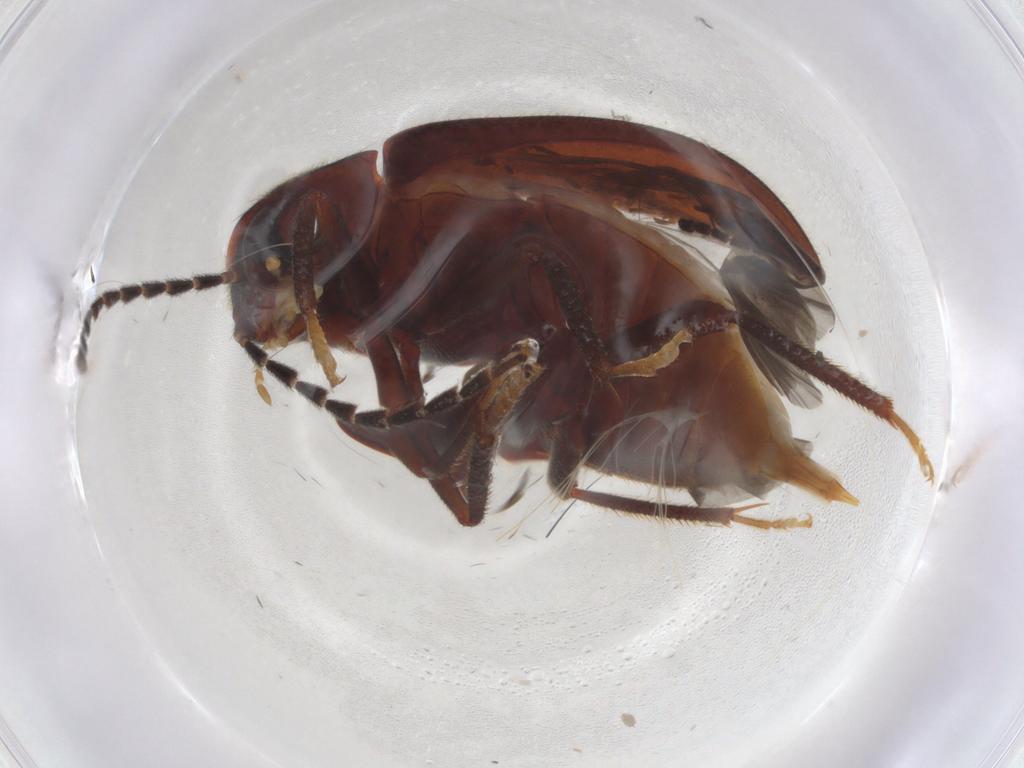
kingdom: Animalia
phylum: Arthropoda
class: Insecta
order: Coleoptera
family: Ptilodactylidae
